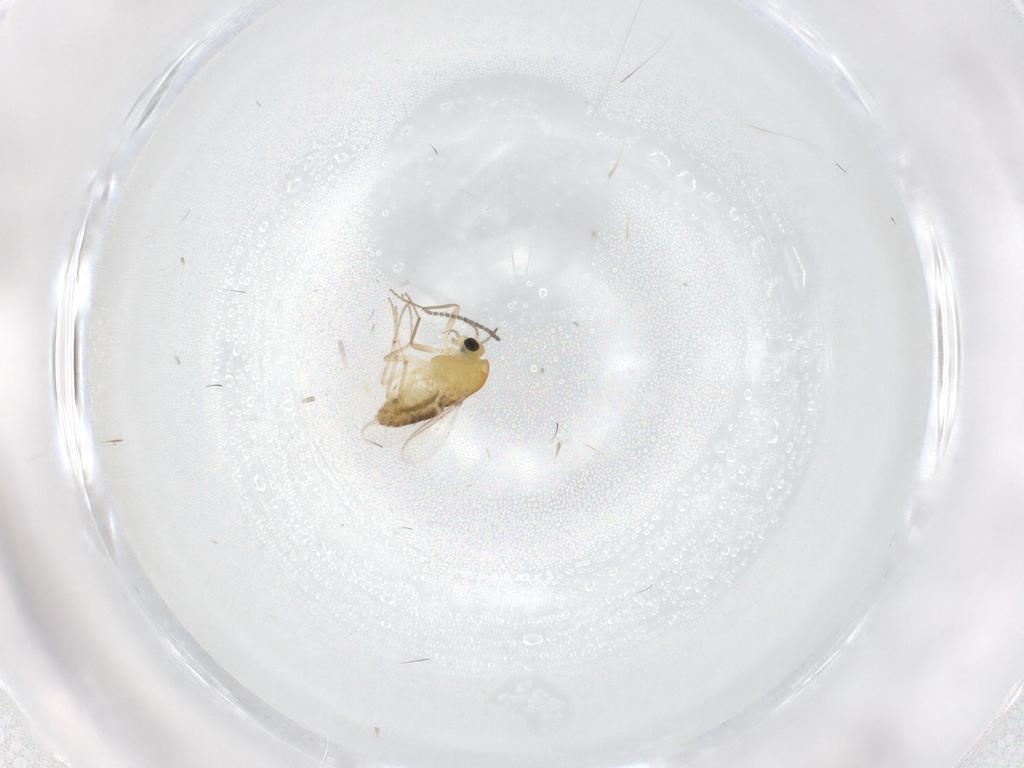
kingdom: Animalia
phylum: Arthropoda
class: Insecta
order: Diptera
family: Chironomidae
